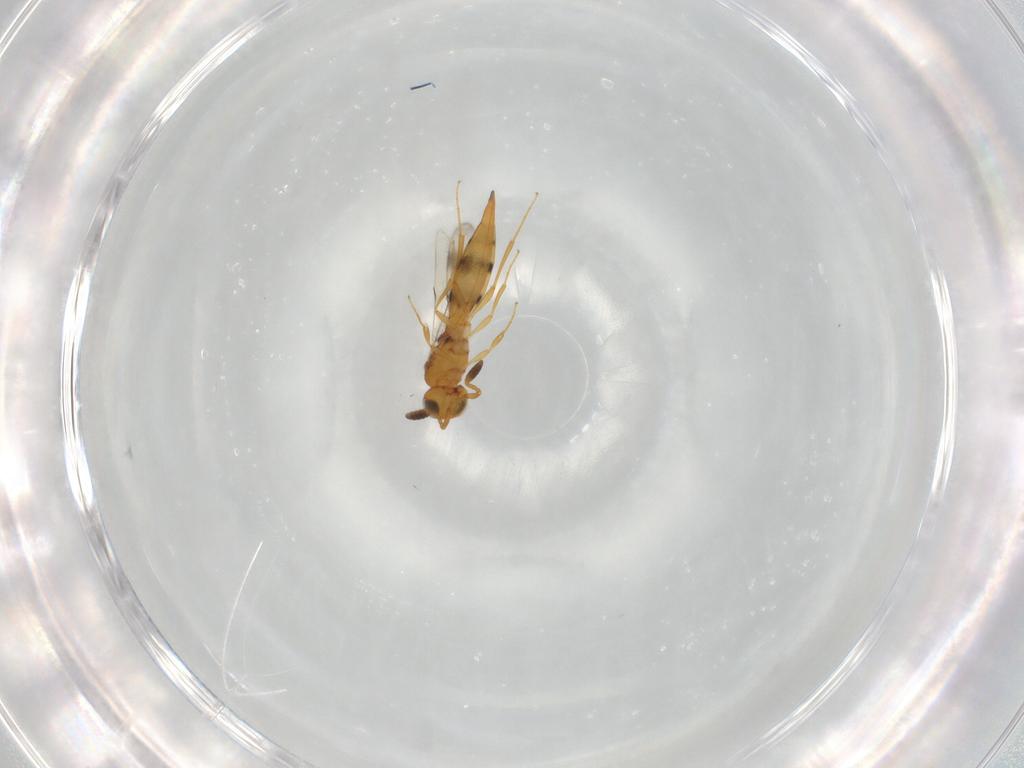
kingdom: Animalia
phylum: Arthropoda
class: Insecta
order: Hymenoptera
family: Scelionidae
